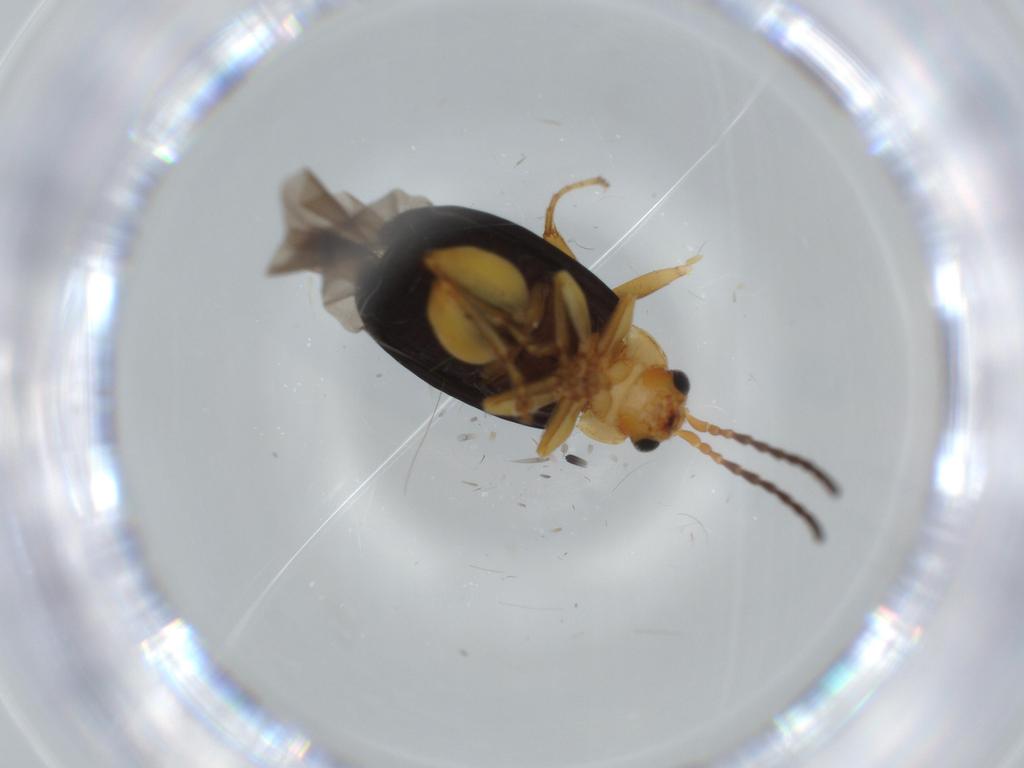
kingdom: Animalia
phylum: Arthropoda
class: Insecta
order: Coleoptera
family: Chrysomelidae
